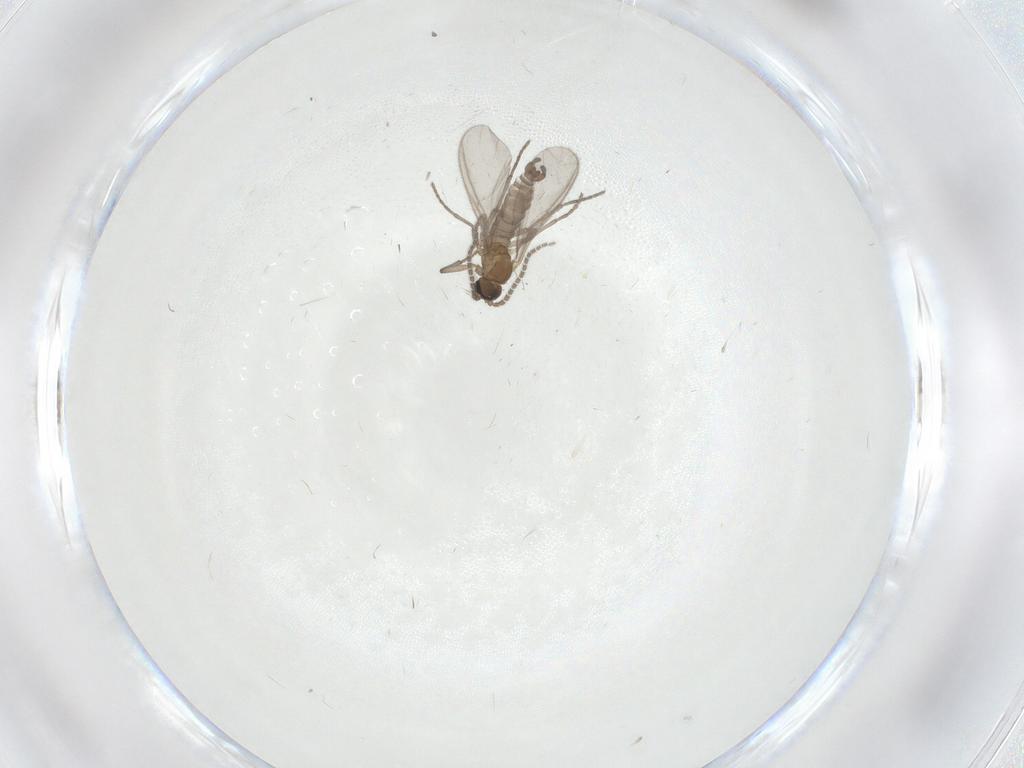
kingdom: Animalia
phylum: Arthropoda
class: Insecta
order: Diptera
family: Sciaridae
